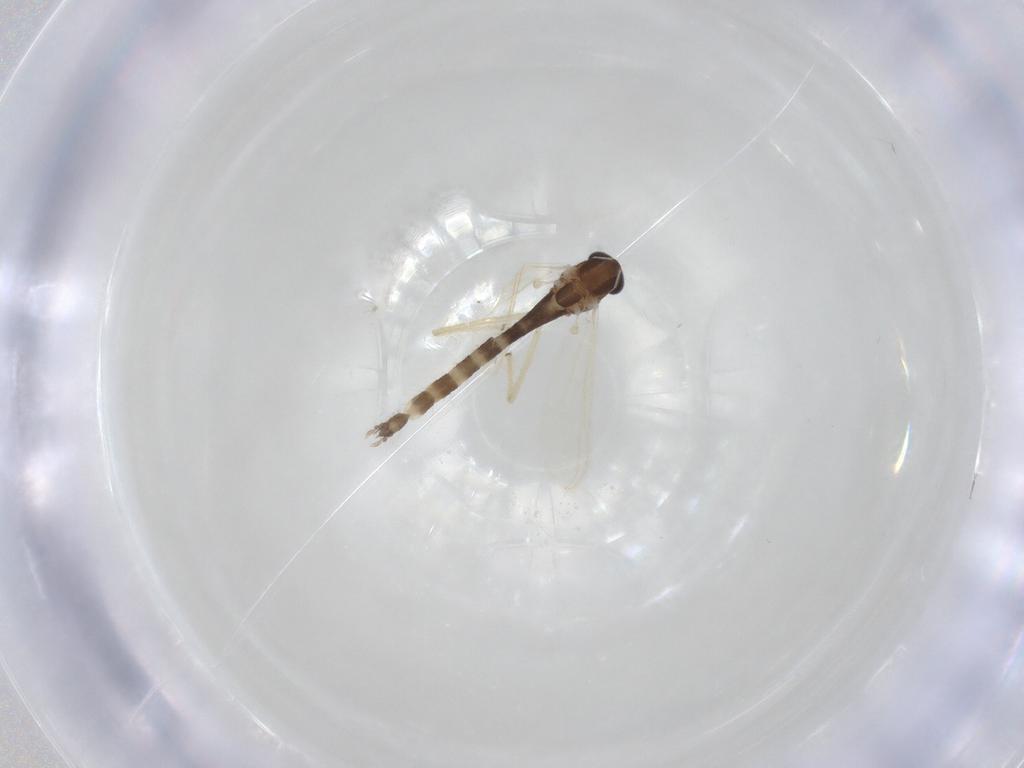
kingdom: Animalia
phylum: Arthropoda
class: Insecta
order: Diptera
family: Chironomidae
